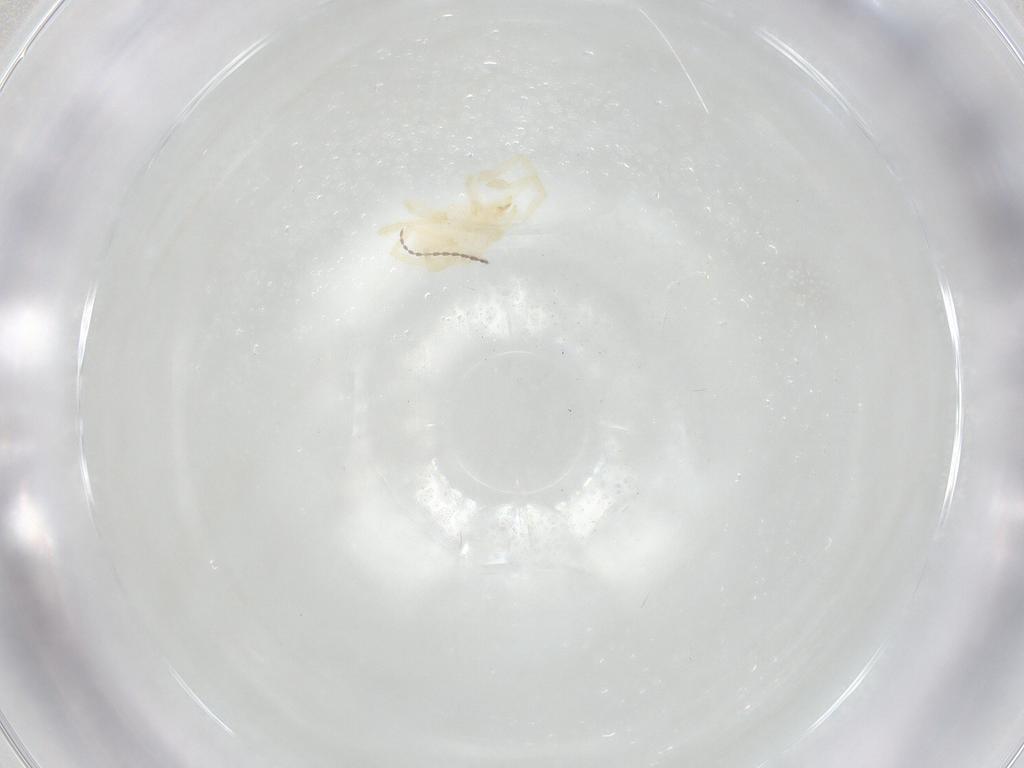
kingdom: Animalia
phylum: Arthropoda
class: Arachnida
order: Trombidiformes
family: Erythraeidae
